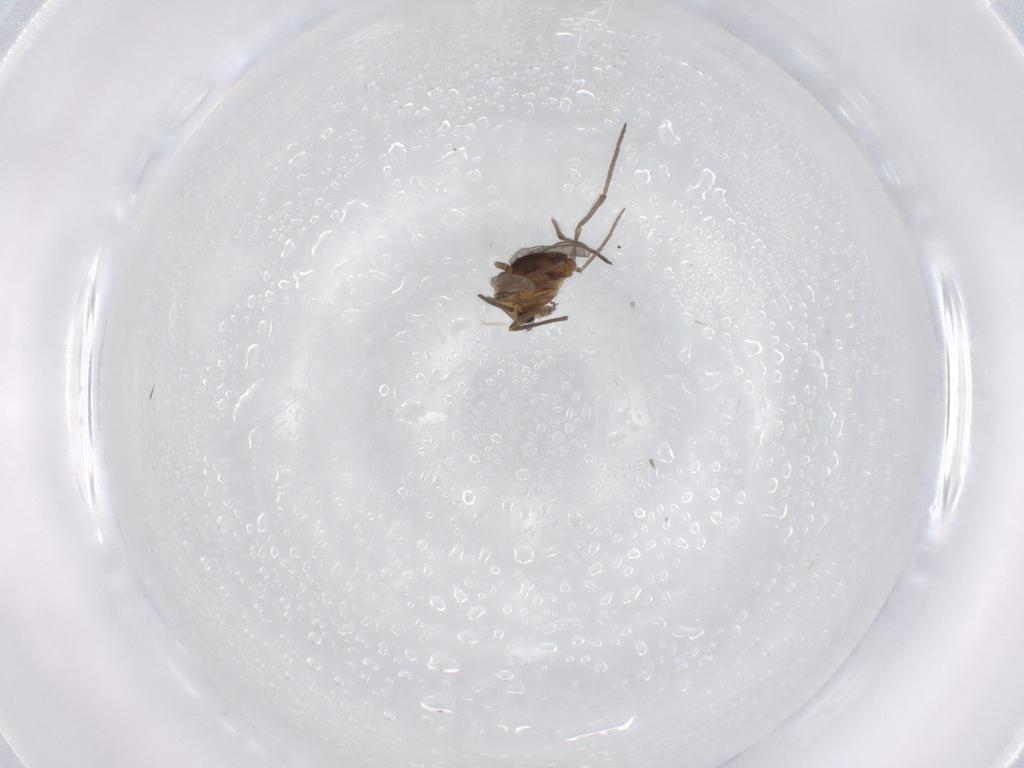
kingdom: Animalia
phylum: Arthropoda
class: Insecta
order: Diptera
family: Chironomidae
